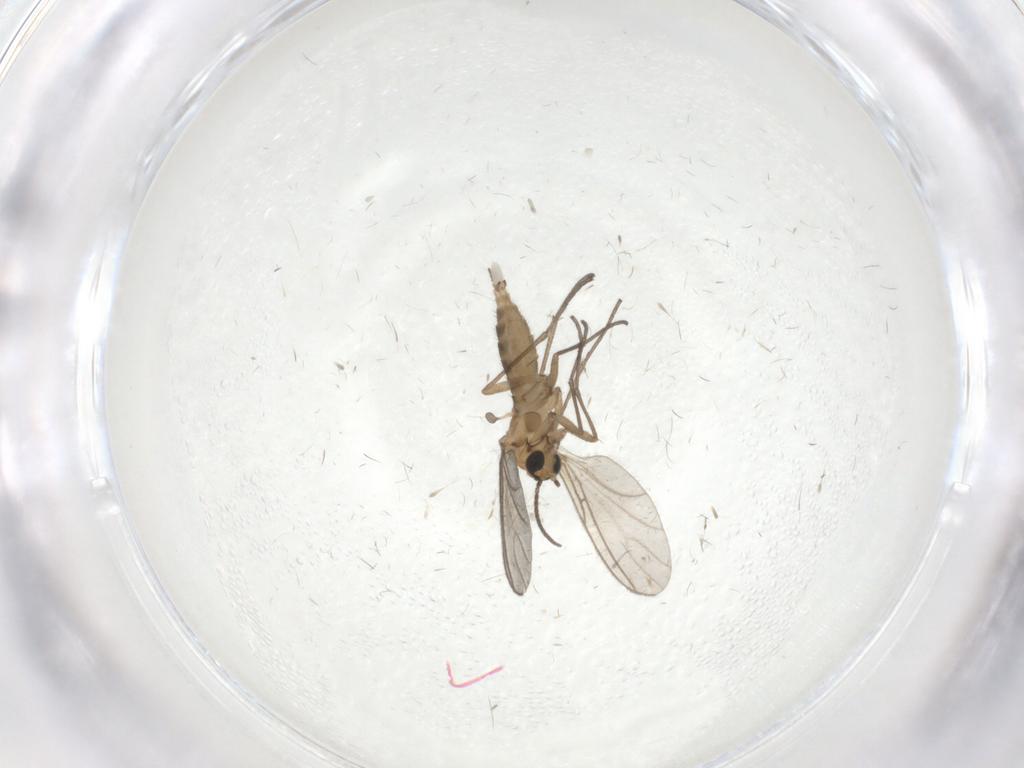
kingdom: Animalia
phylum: Arthropoda
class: Insecta
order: Diptera
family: Sciaridae
